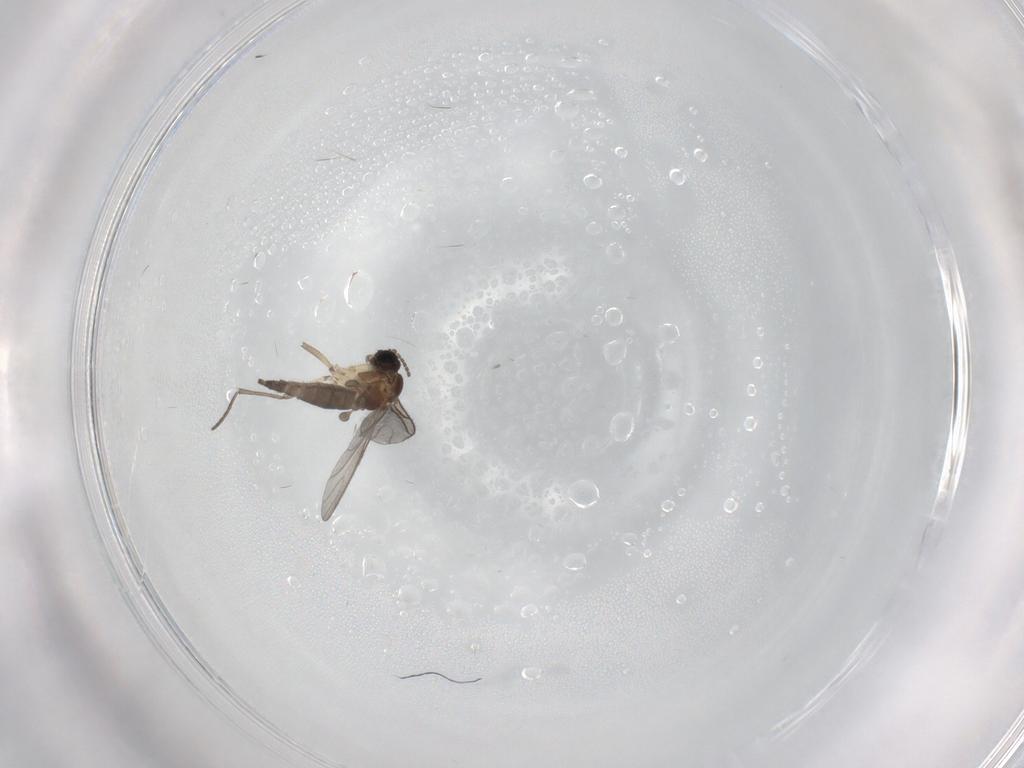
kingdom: Animalia
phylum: Arthropoda
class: Insecta
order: Diptera
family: Sciaridae
